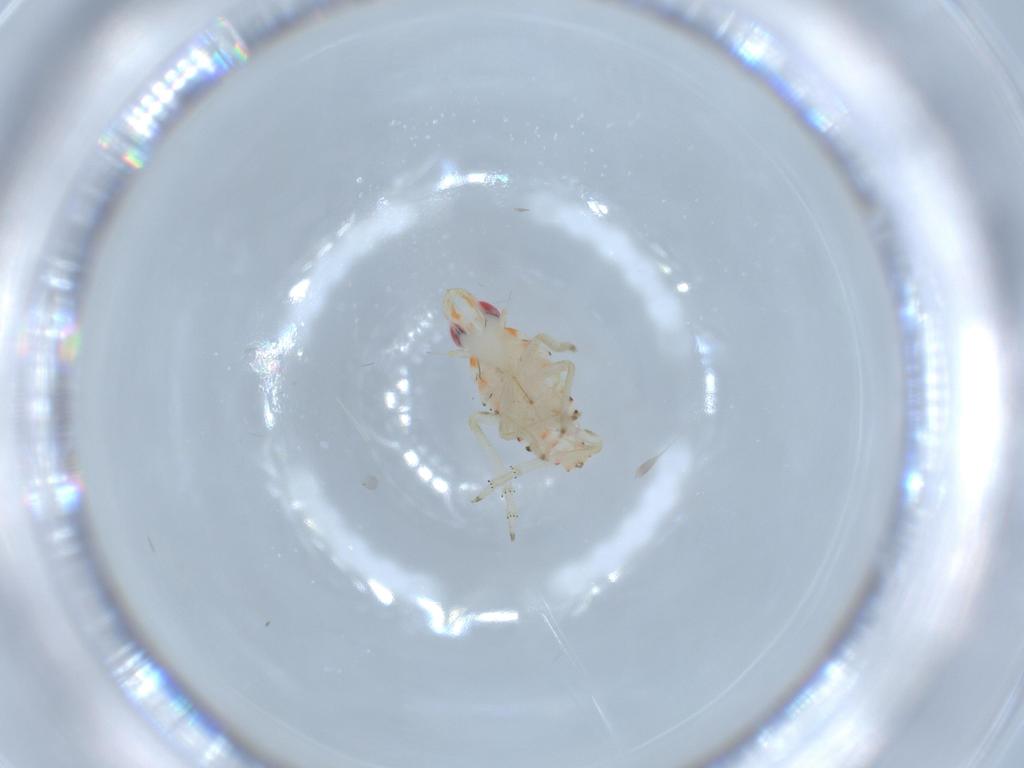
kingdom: Animalia
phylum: Arthropoda
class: Insecta
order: Hemiptera
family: Tropiduchidae
